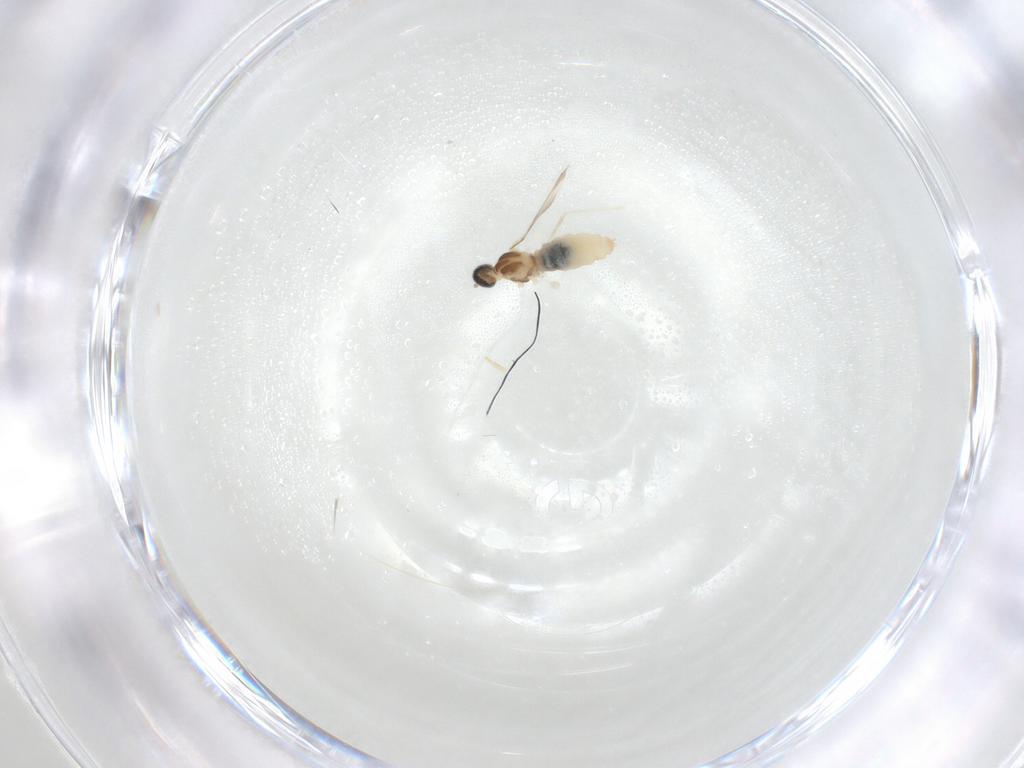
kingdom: Animalia
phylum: Arthropoda
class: Insecta
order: Diptera
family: Cecidomyiidae
